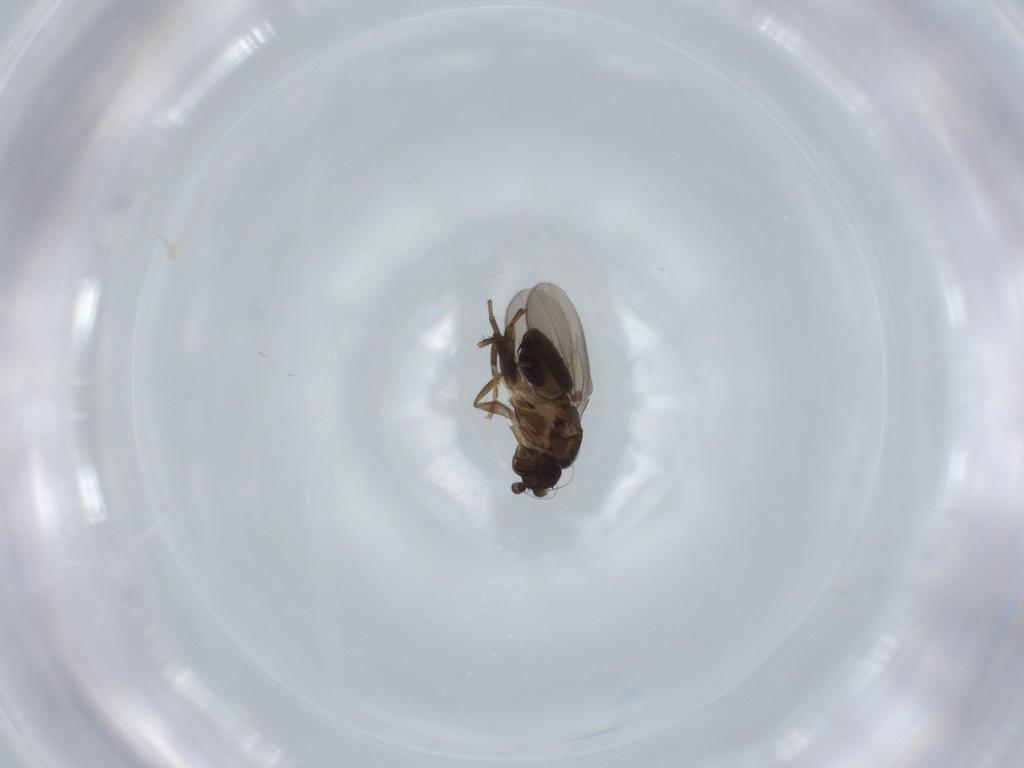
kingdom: Animalia
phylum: Arthropoda
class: Insecta
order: Diptera
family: Sphaeroceridae
